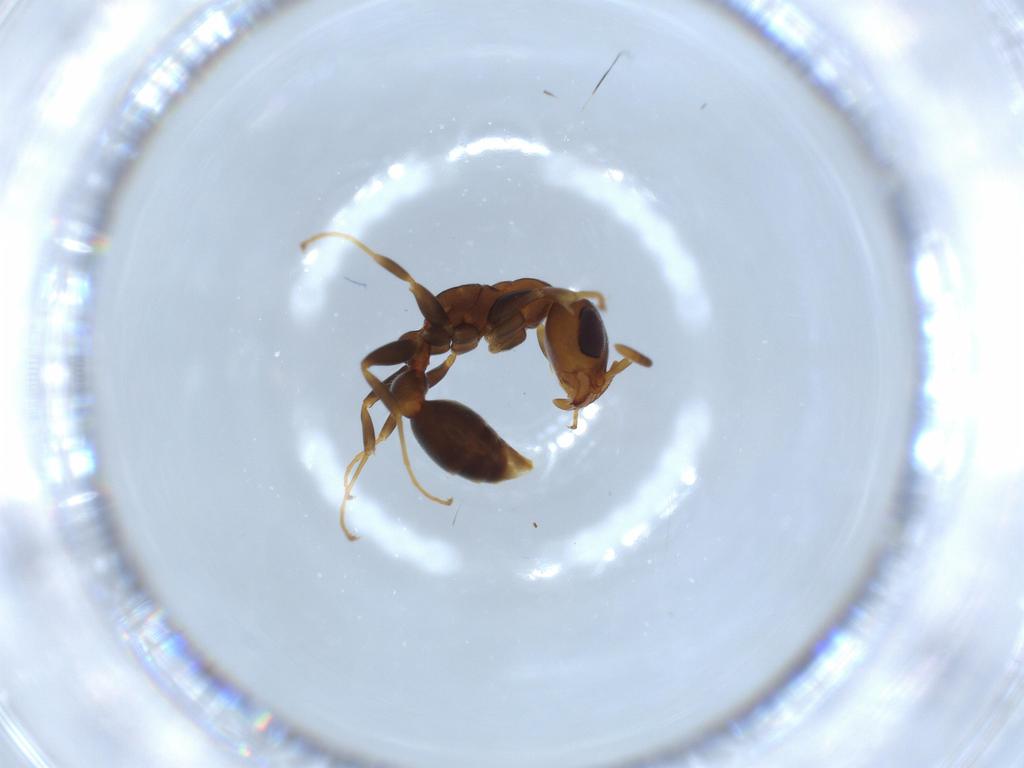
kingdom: Animalia
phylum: Arthropoda
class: Insecta
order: Hymenoptera
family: Formicidae
